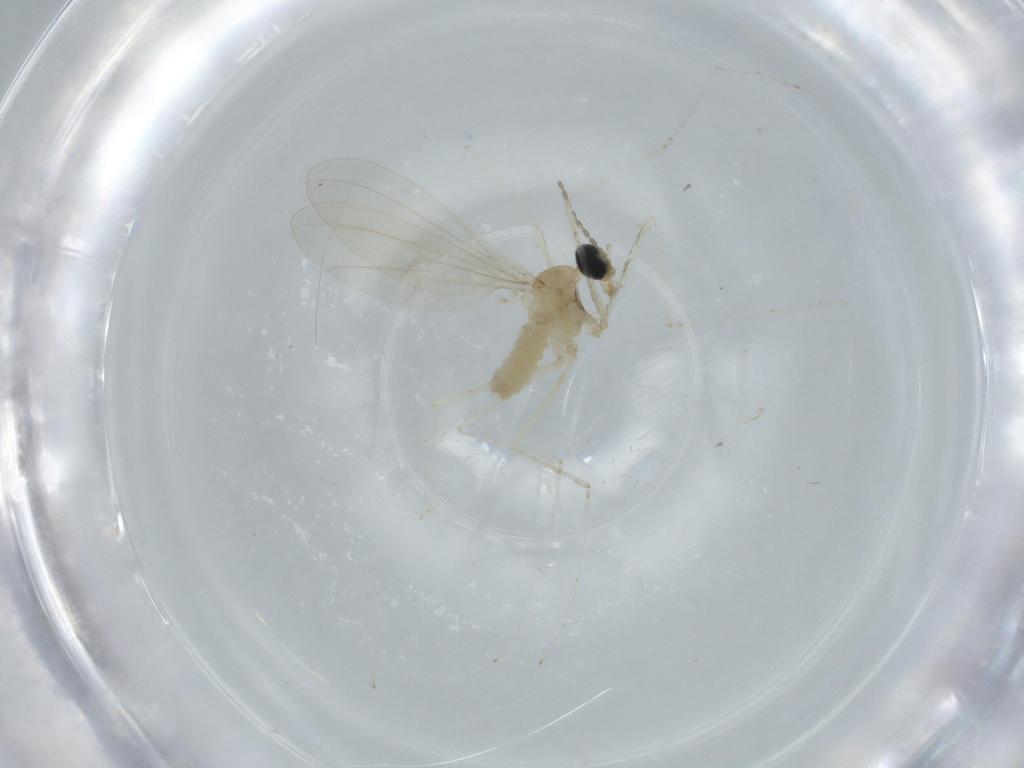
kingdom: Animalia
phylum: Arthropoda
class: Insecta
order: Diptera
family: Cecidomyiidae
